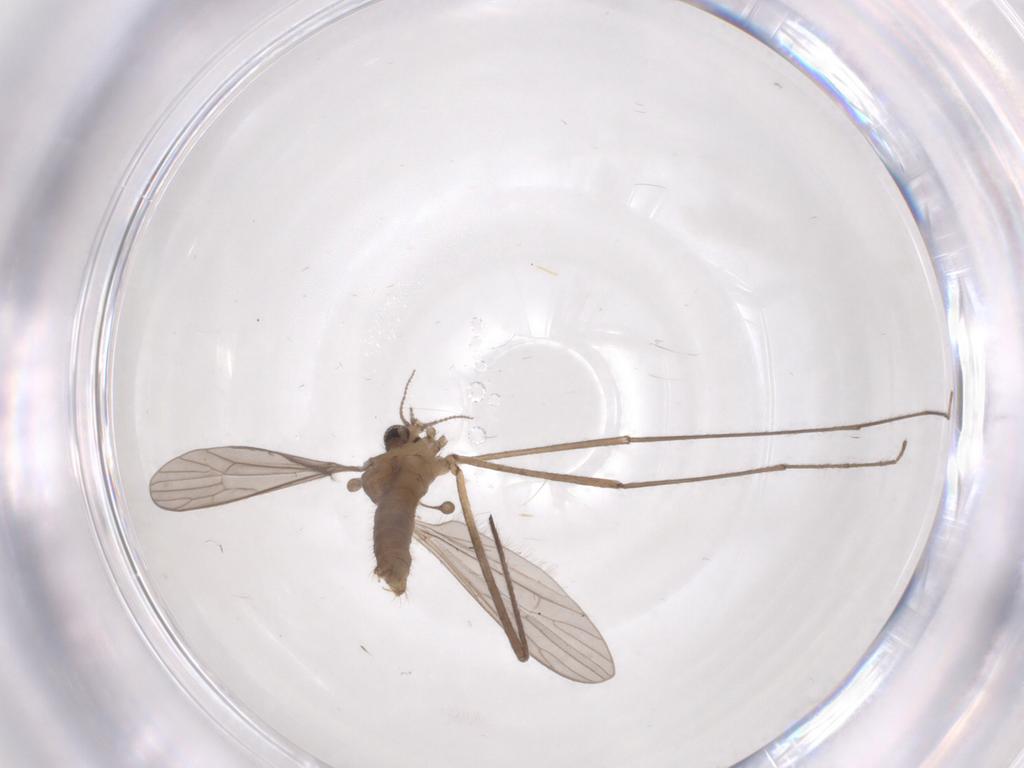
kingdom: Animalia
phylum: Arthropoda
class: Insecta
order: Diptera
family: Limoniidae
